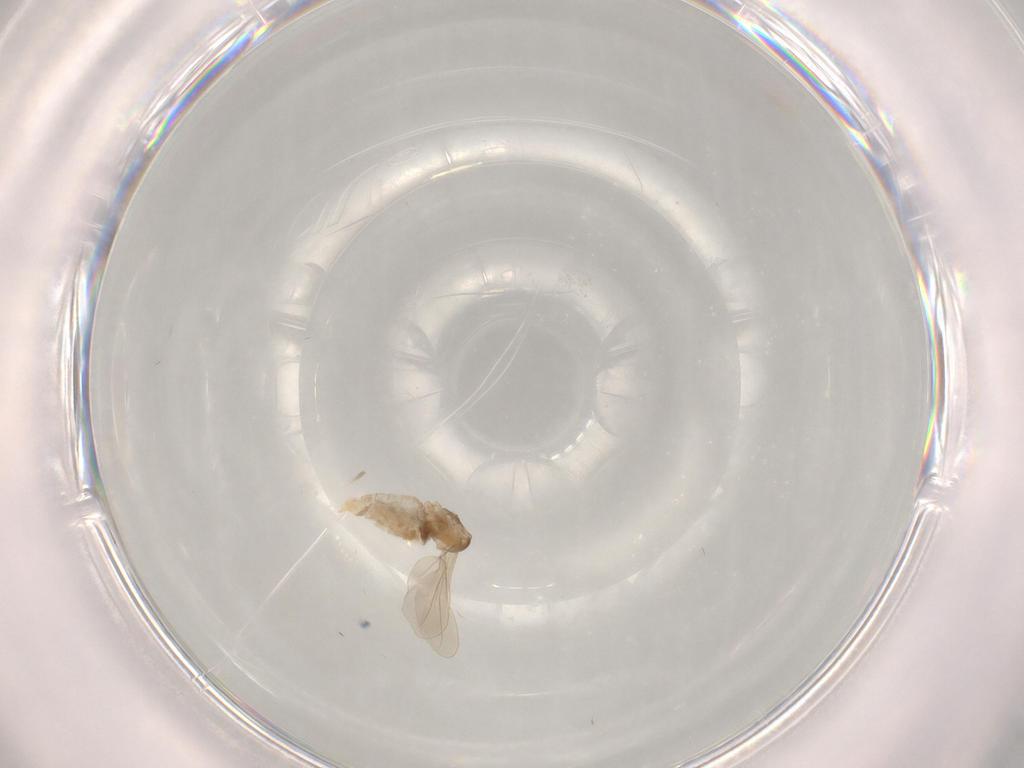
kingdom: Animalia
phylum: Arthropoda
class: Insecta
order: Diptera
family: Cecidomyiidae
